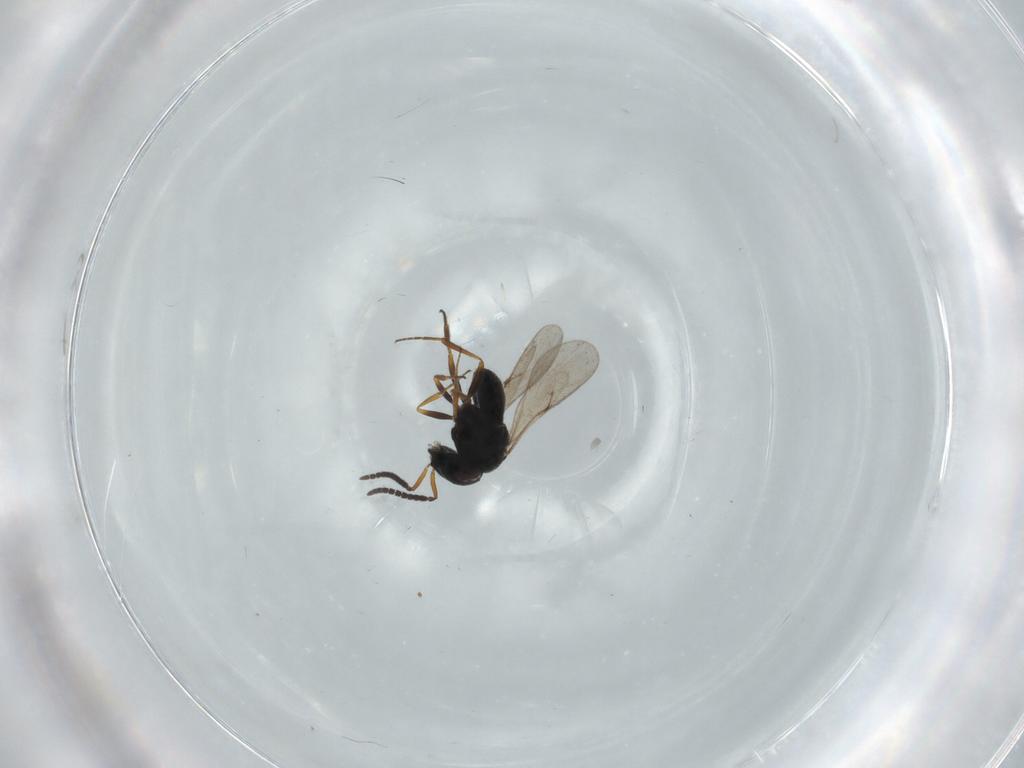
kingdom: Animalia
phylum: Arthropoda
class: Insecta
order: Hymenoptera
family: Scelionidae
